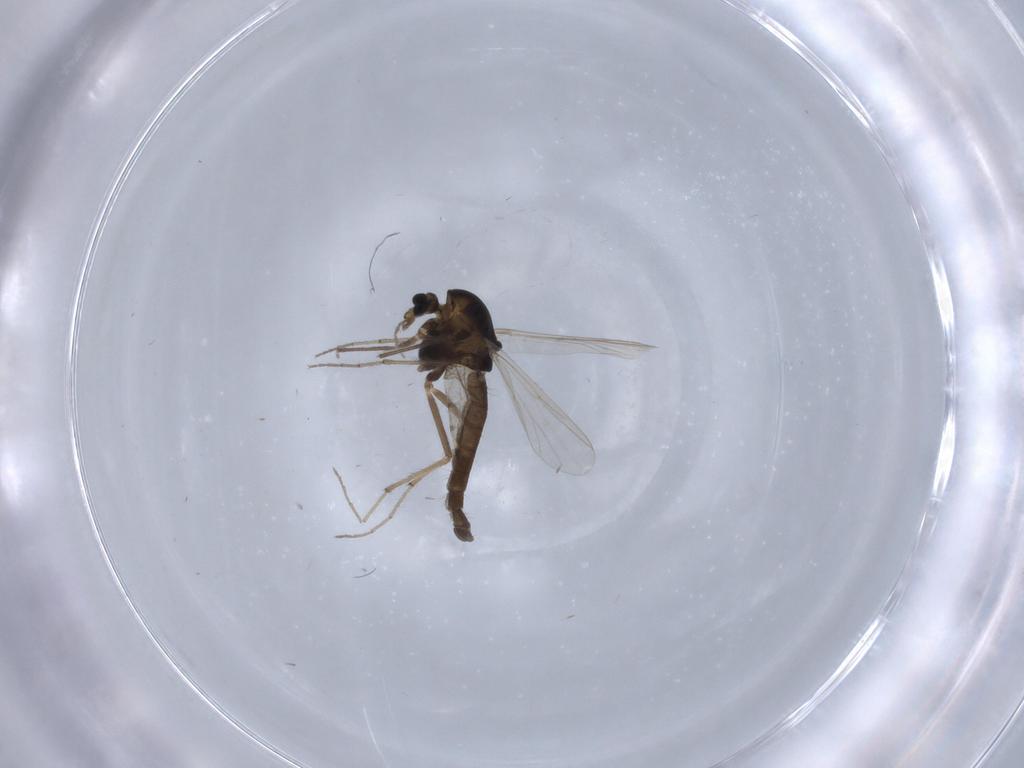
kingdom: Animalia
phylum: Arthropoda
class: Insecta
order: Diptera
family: Chironomidae
